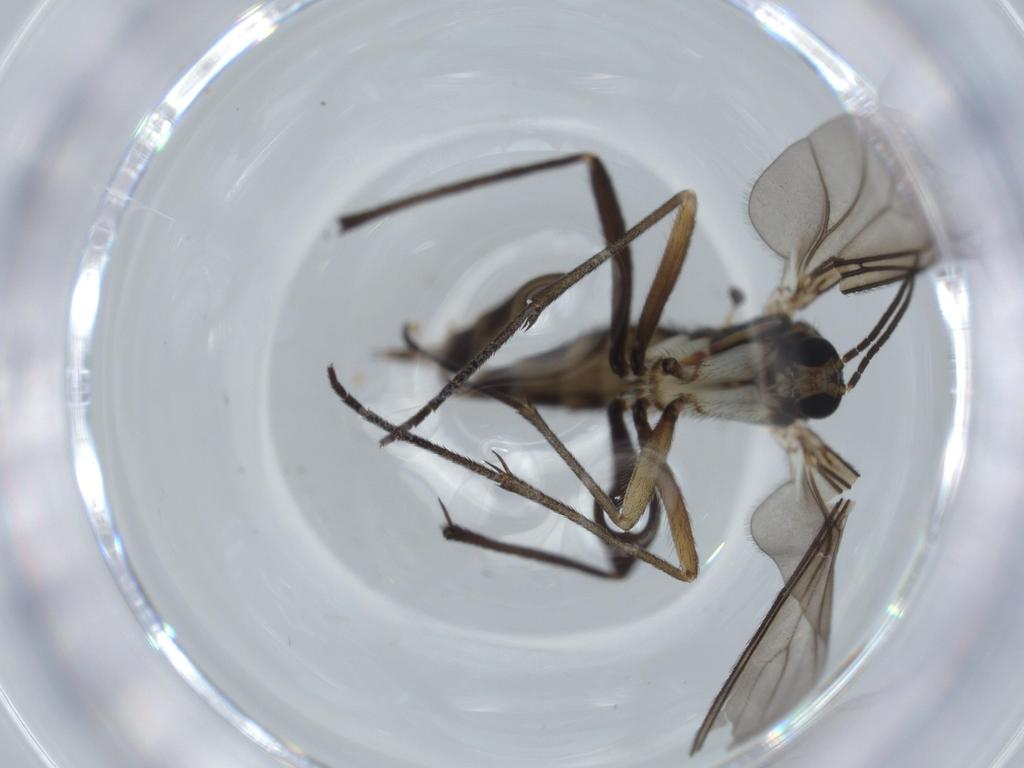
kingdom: Animalia
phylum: Arthropoda
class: Insecta
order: Diptera
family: Sciaridae
